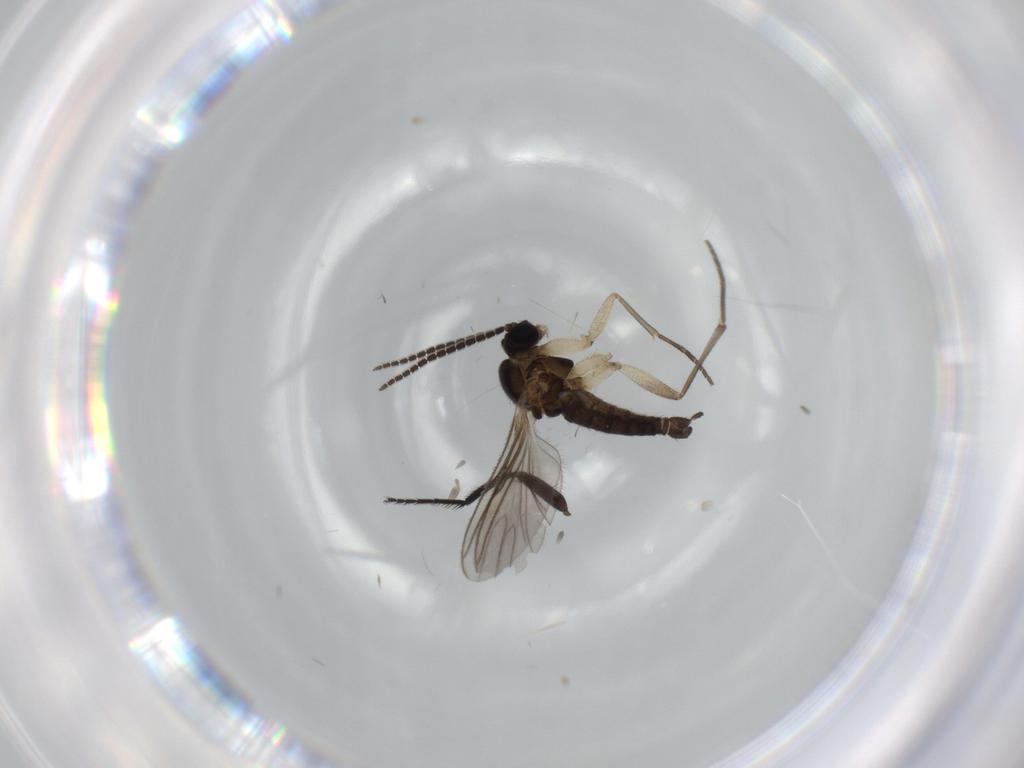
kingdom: Animalia
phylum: Arthropoda
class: Insecta
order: Diptera
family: Sciaridae
